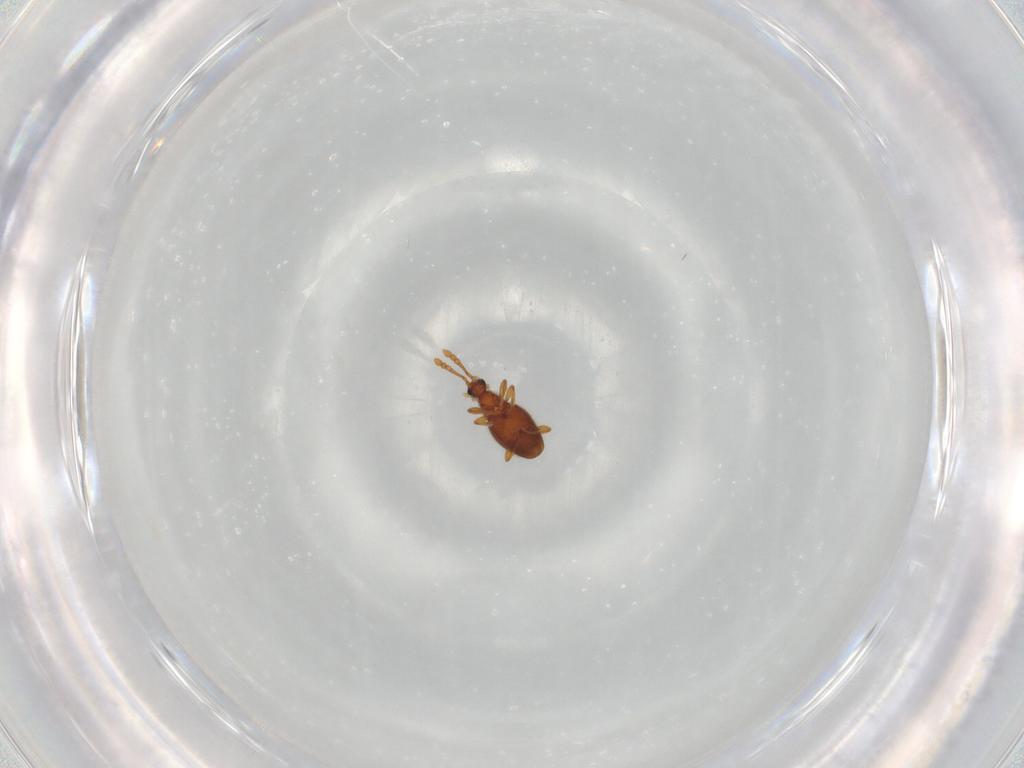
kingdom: Animalia
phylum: Arthropoda
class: Insecta
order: Coleoptera
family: Staphylinidae
